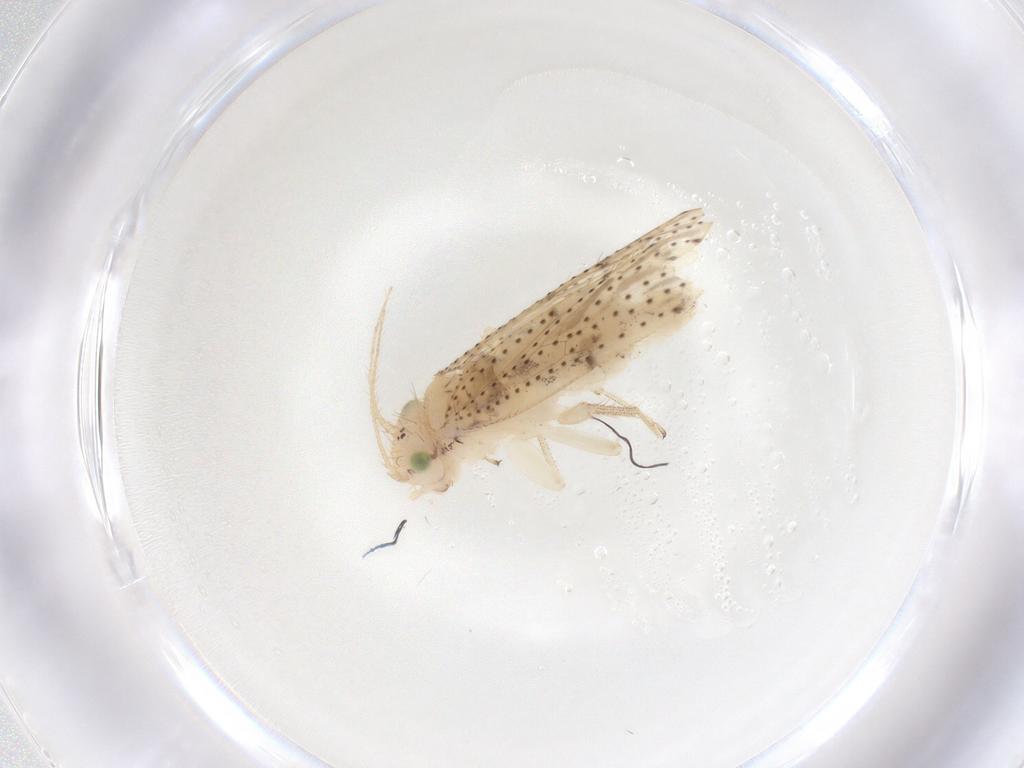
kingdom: Animalia
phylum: Arthropoda
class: Insecta
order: Psocodea
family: Myopsocidae
